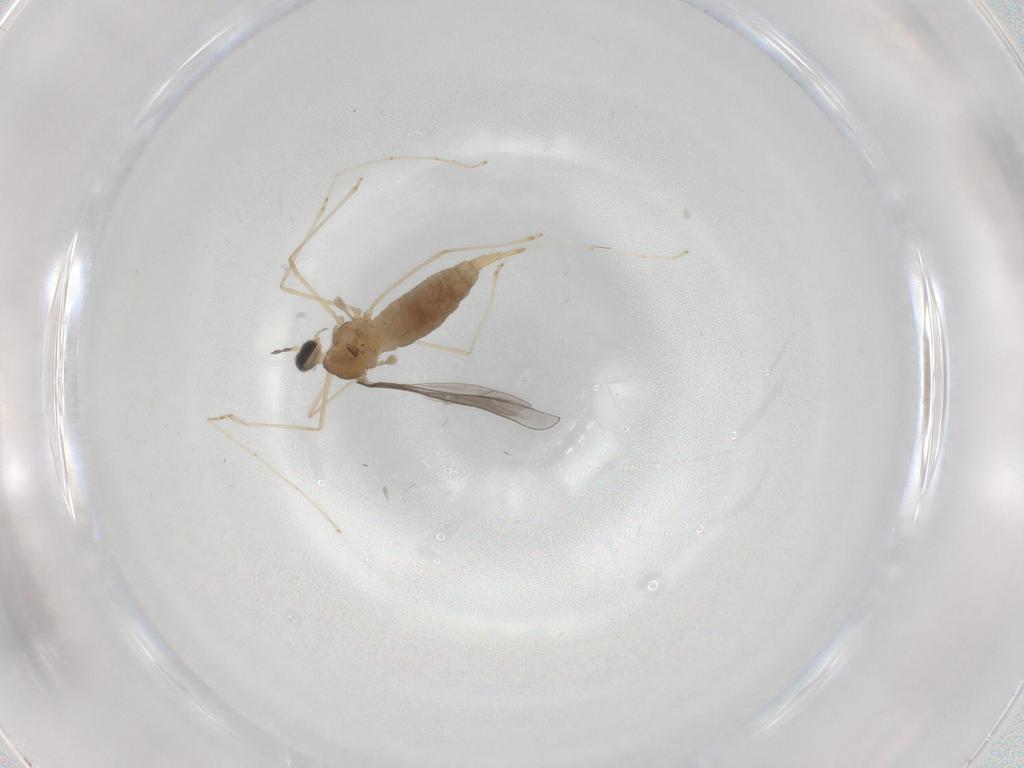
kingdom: Animalia
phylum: Arthropoda
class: Insecta
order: Diptera
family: Cecidomyiidae
